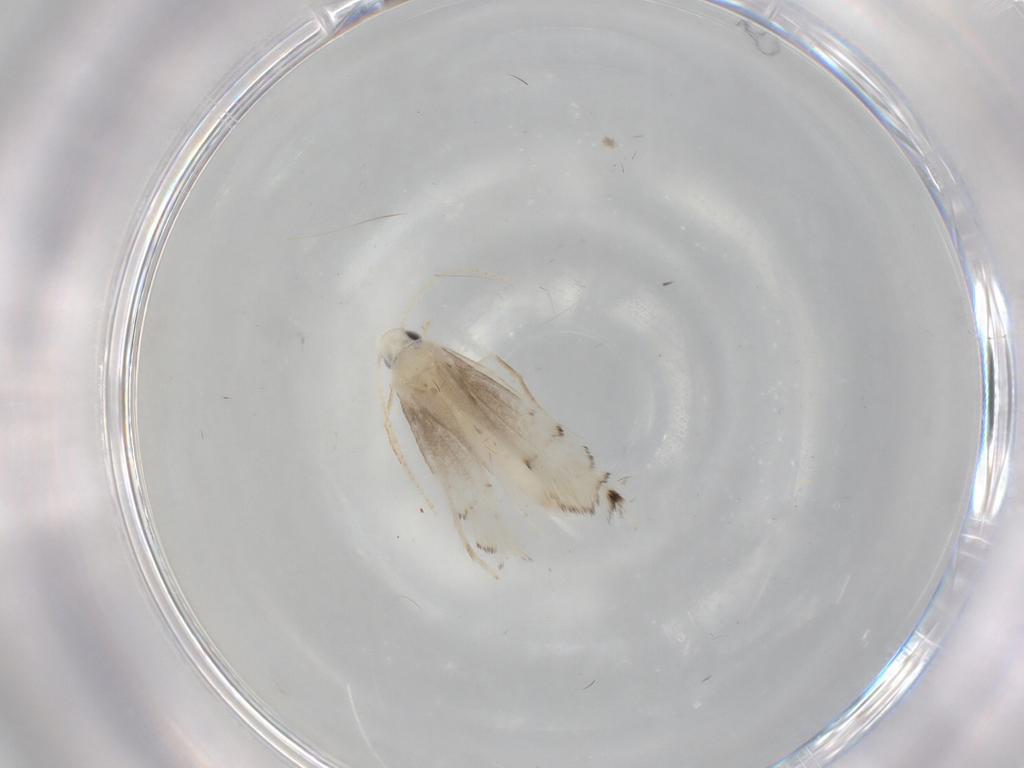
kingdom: Animalia
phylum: Arthropoda
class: Insecta
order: Lepidoptera
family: Gracillariidae
